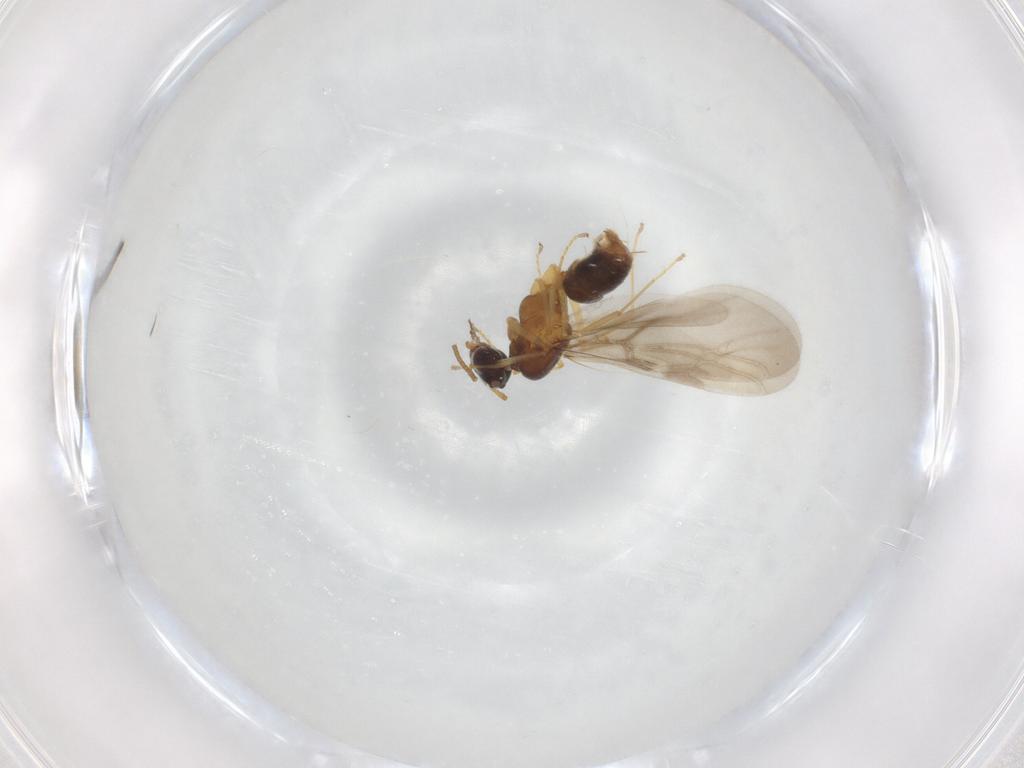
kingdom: Animalia
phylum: Arthropoda
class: Insecta
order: Hymenoptera
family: Formicidae
